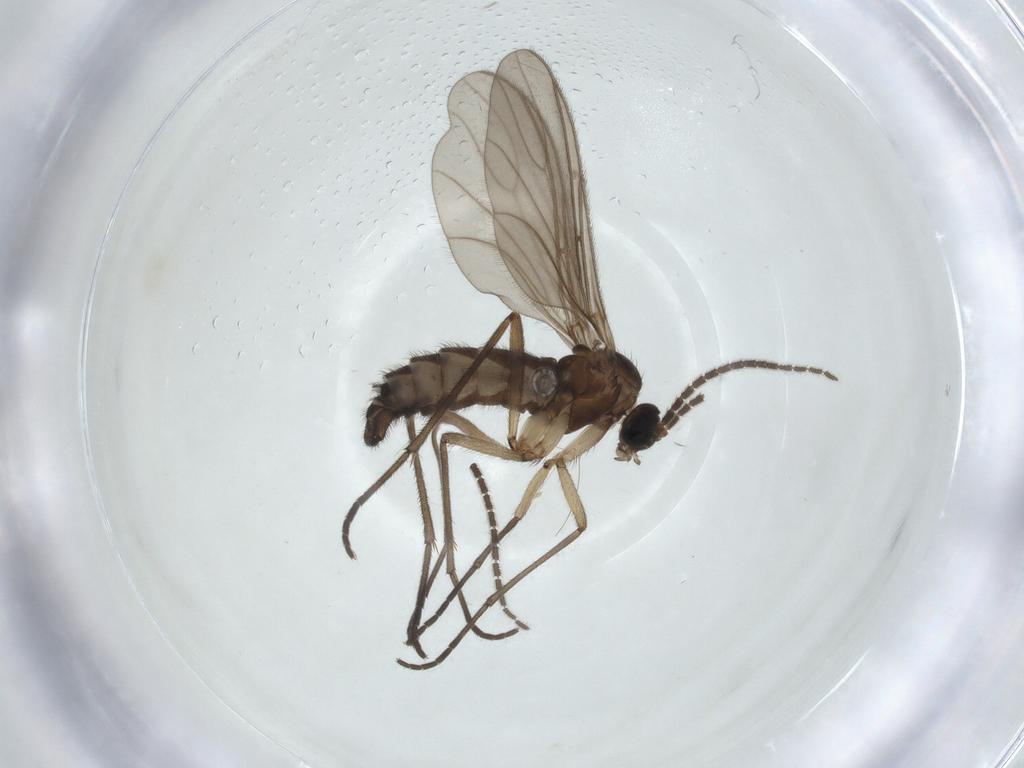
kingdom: Animalia
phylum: Arthropoda
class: Insecta
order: Diptera
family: Sciaridae
